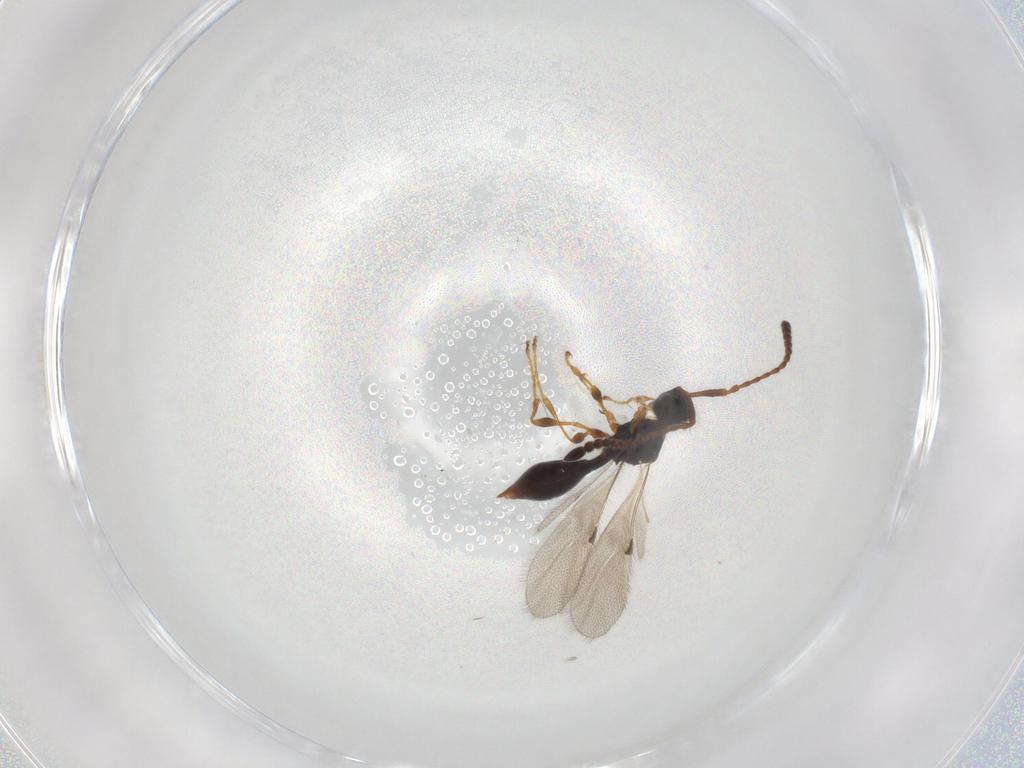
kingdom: Animalia
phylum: Arthropoda
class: Insecta
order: Hymenoptera
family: Diapriidae
